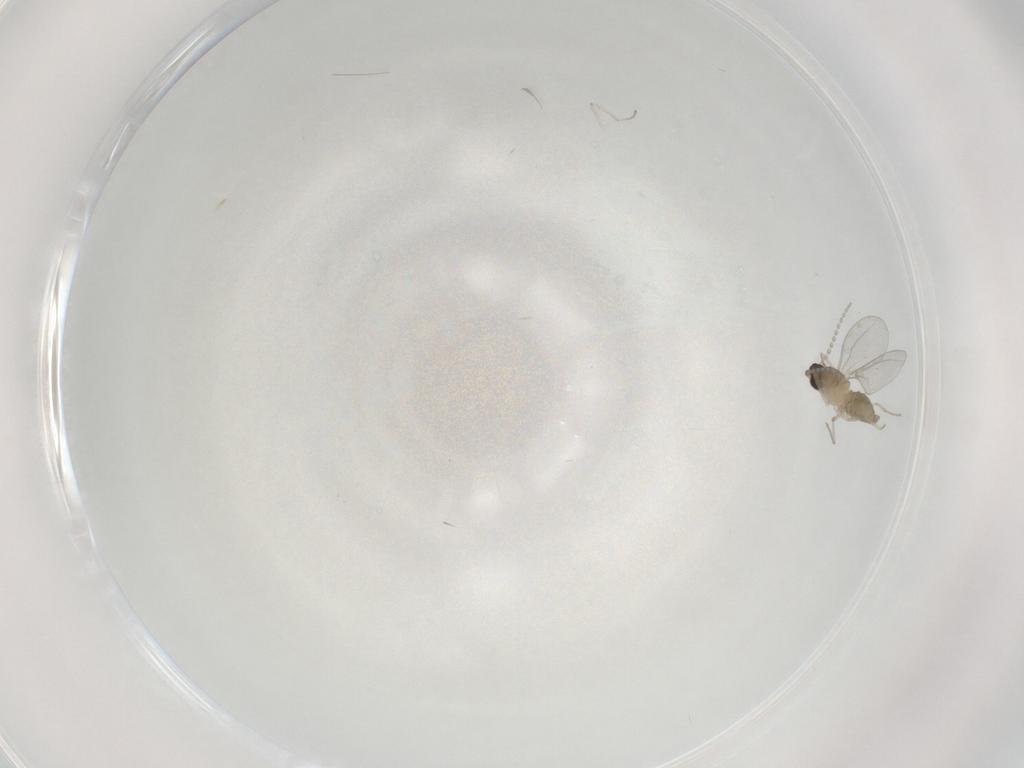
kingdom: Animalia
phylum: Arthropoda
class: Insecta
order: Diptera
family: Cecidomyiidae
